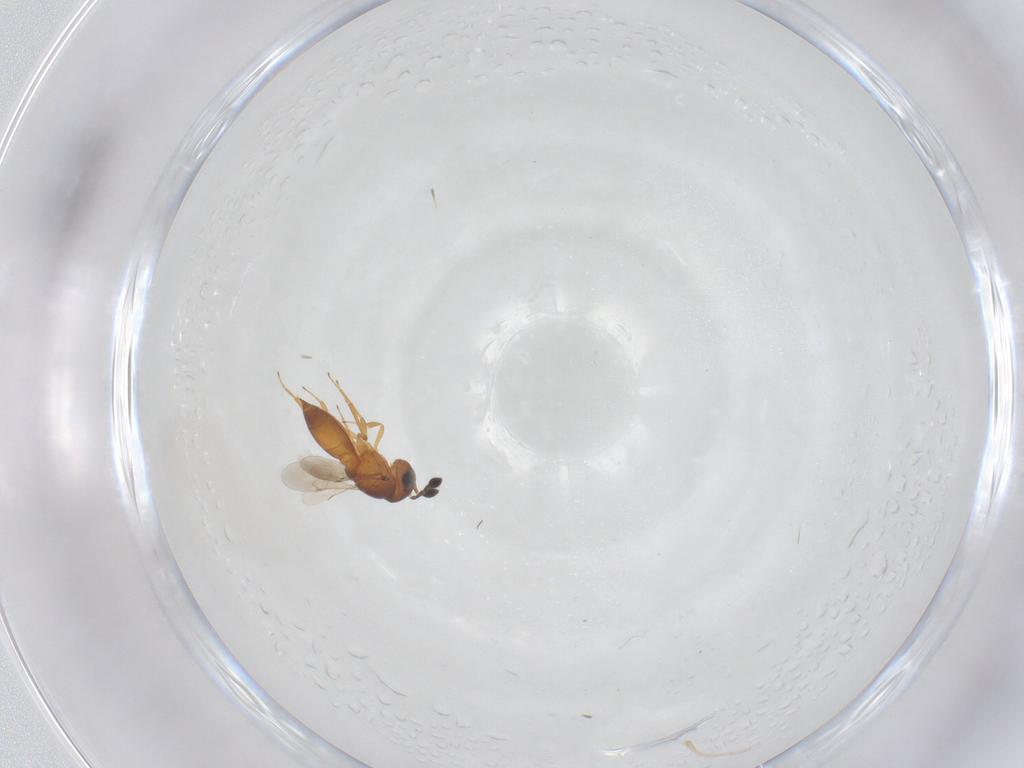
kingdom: Animalia
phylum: Arthropoda
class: Insecta
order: Hymenoptera
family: Scelionidae
